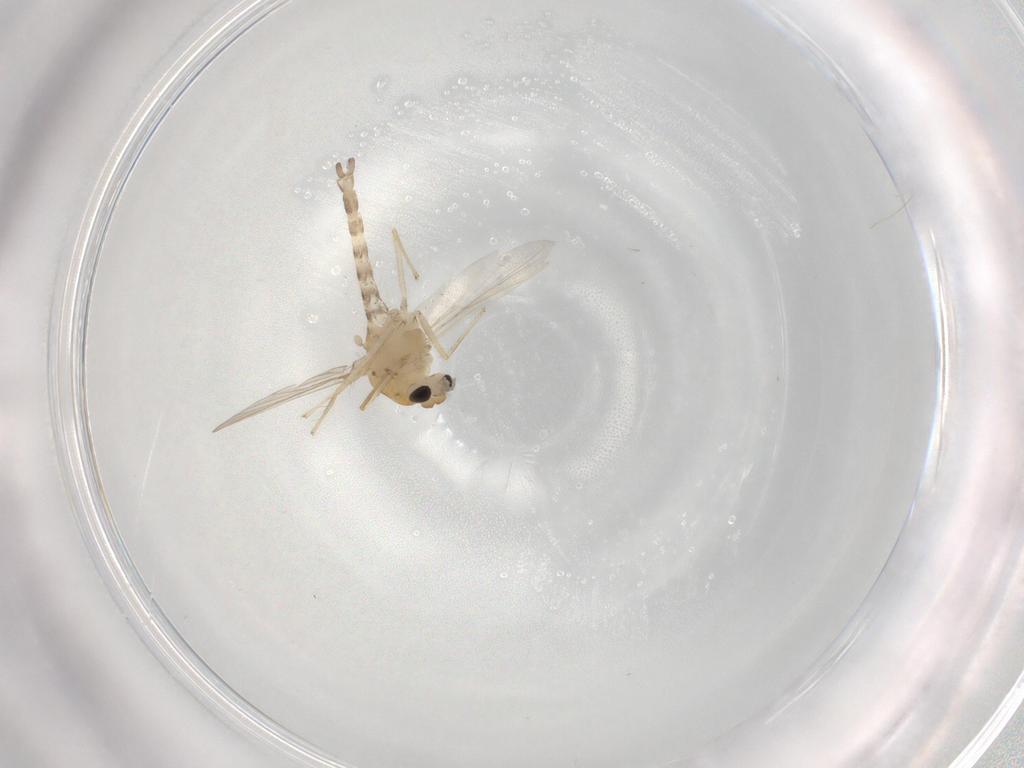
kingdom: Animalia
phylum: Arthropoda
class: Insecta
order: Diptera
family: Chironomidae
